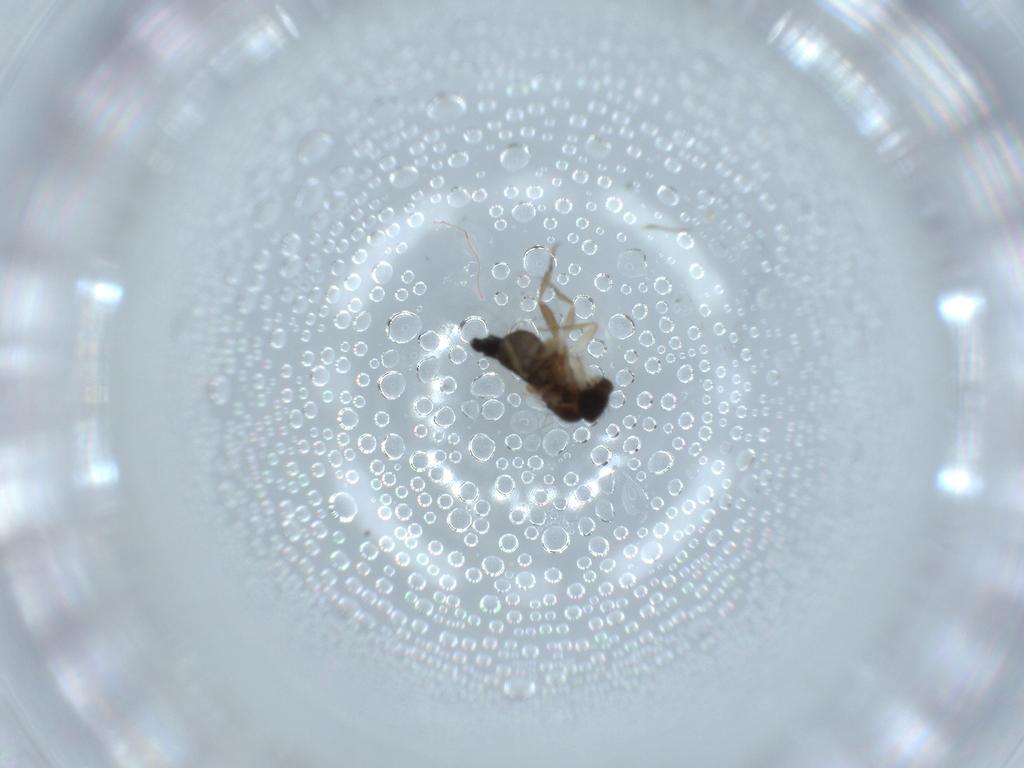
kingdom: Animalia
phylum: Arthropoda
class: Insecta
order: Diptera
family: Phoridae
